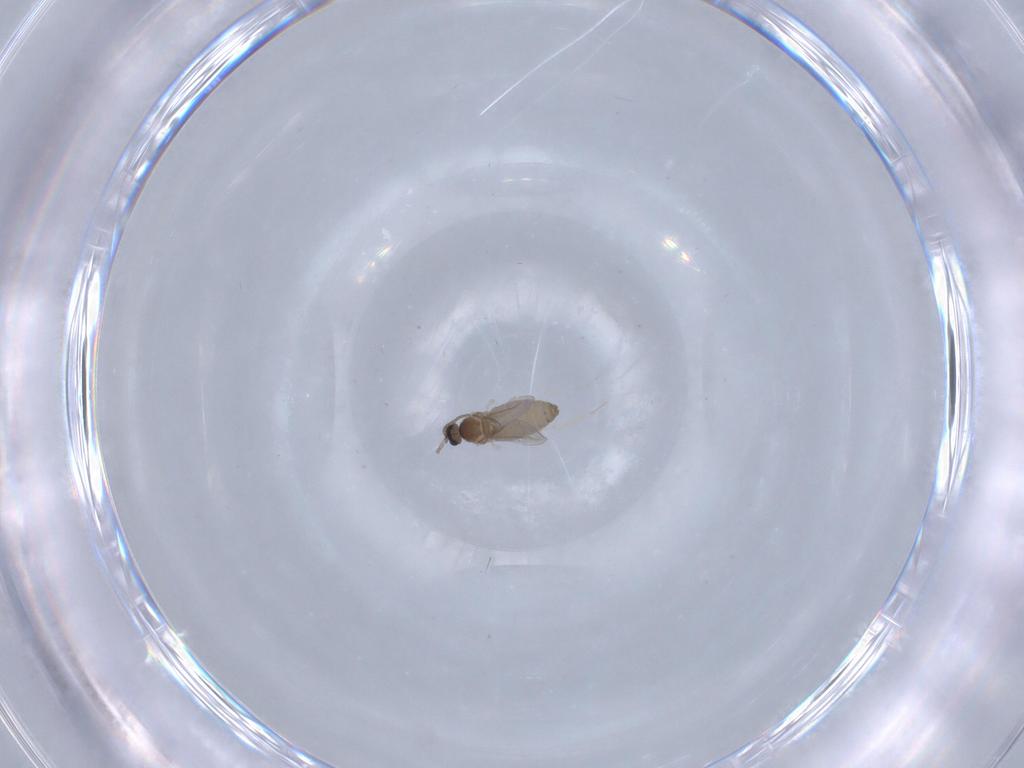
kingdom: Animalia
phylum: Arthropoda
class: Insecta
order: Diptera
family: Cecidomyiidae
